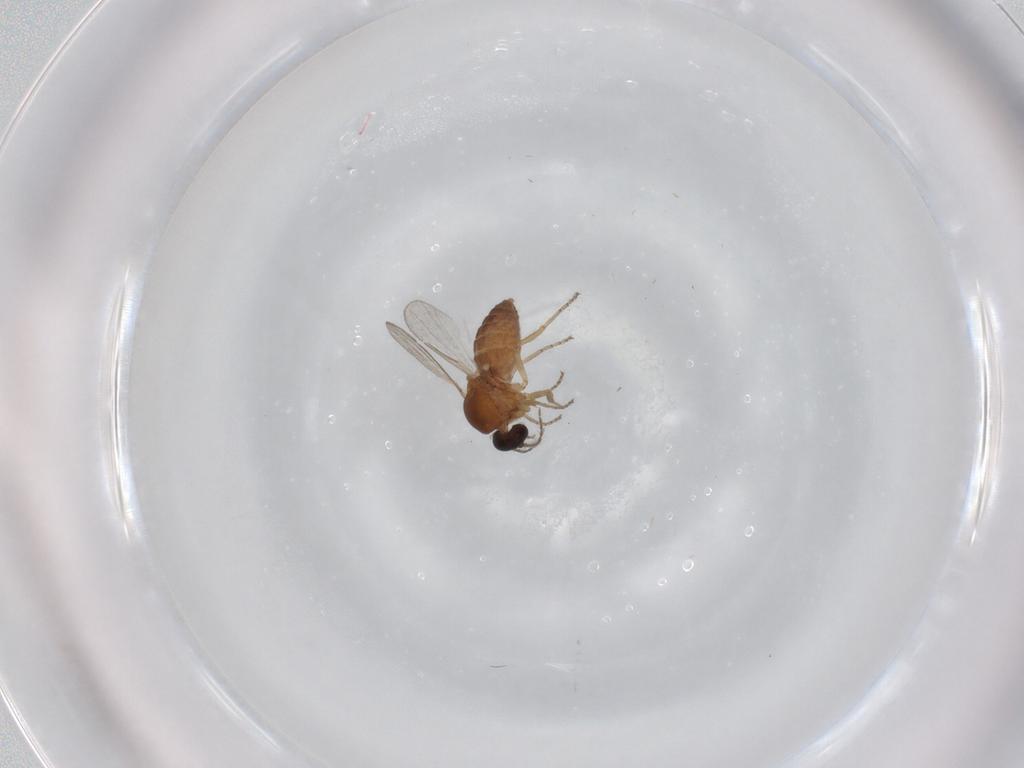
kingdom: Animalia
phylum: Arthropoda
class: Insecta
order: Diptera
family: Ceratopogonidae
